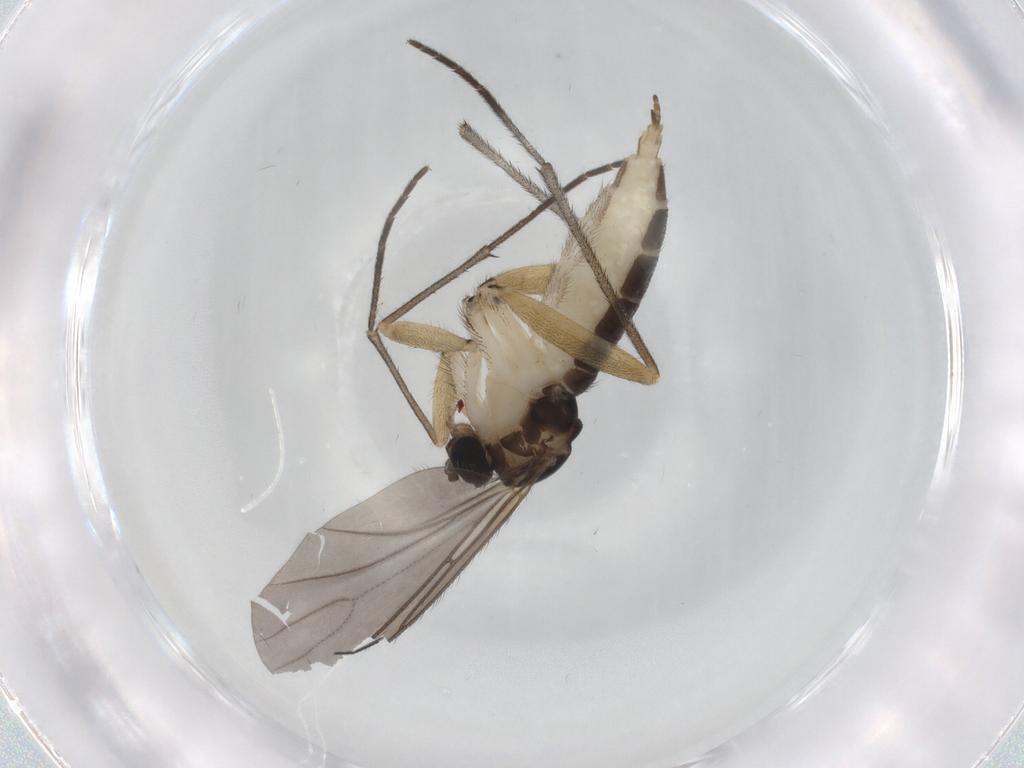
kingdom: Animalia
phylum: Arthropoda
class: Insecta
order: Diptera
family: Sciaridae
